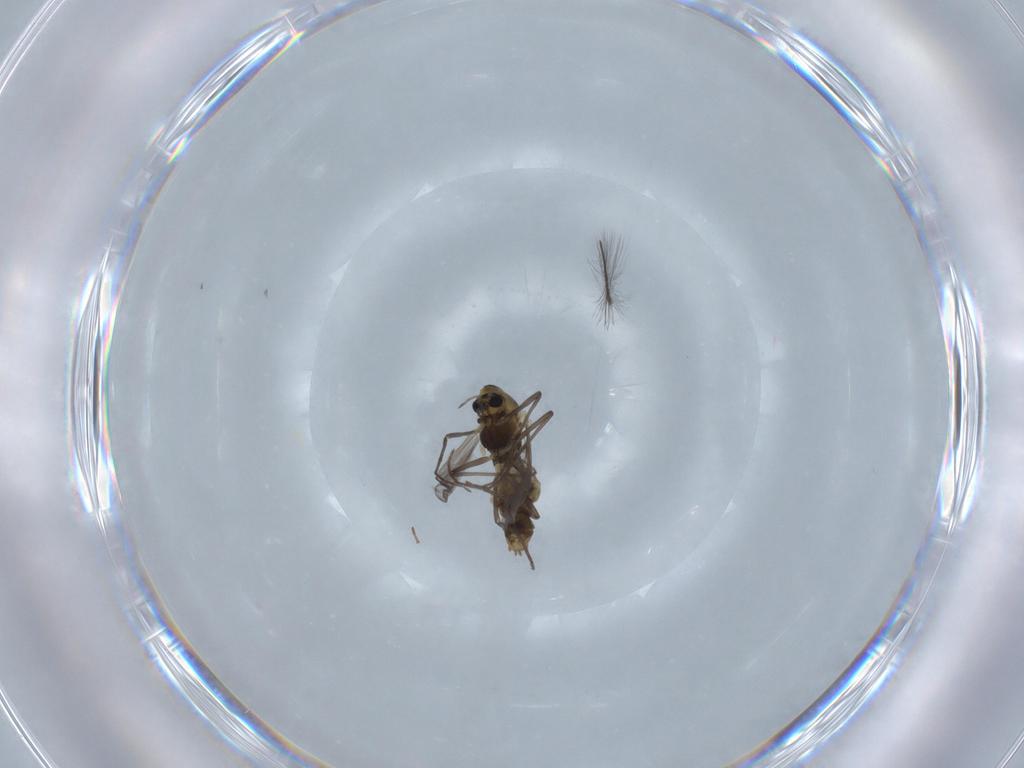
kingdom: Animalia
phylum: Arthropoda
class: Insecta
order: Diptera
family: Chironomidae
